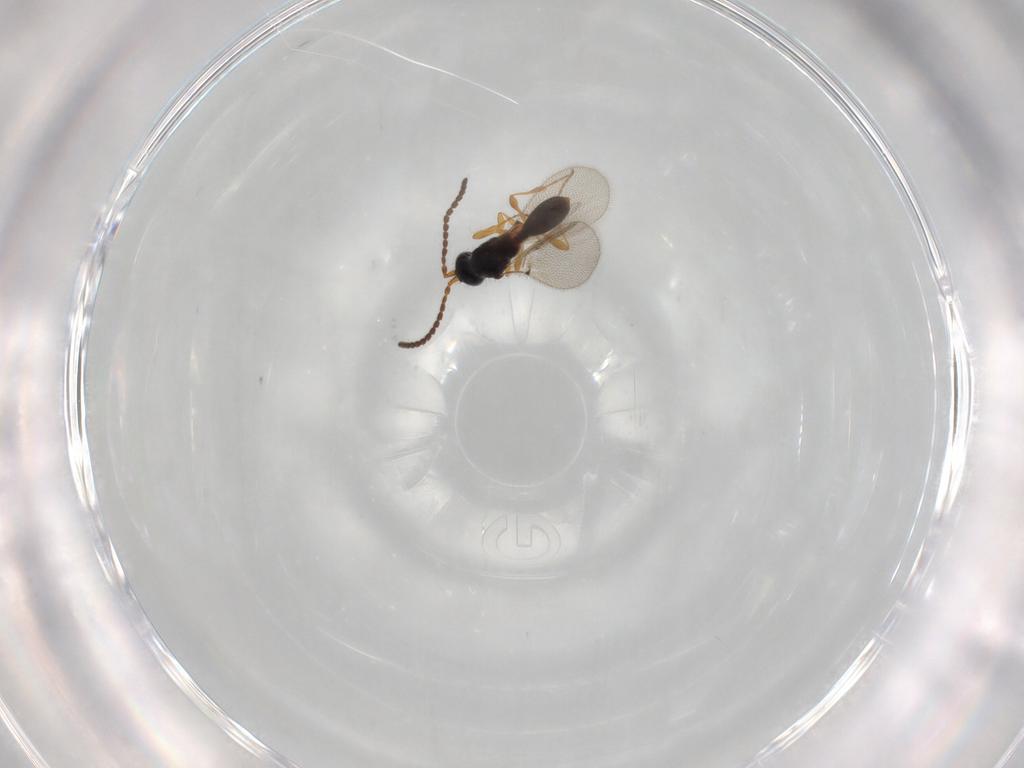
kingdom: Animalia
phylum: Arthropoda
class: Insecta
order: Hymenoptera
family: Diapriidae
